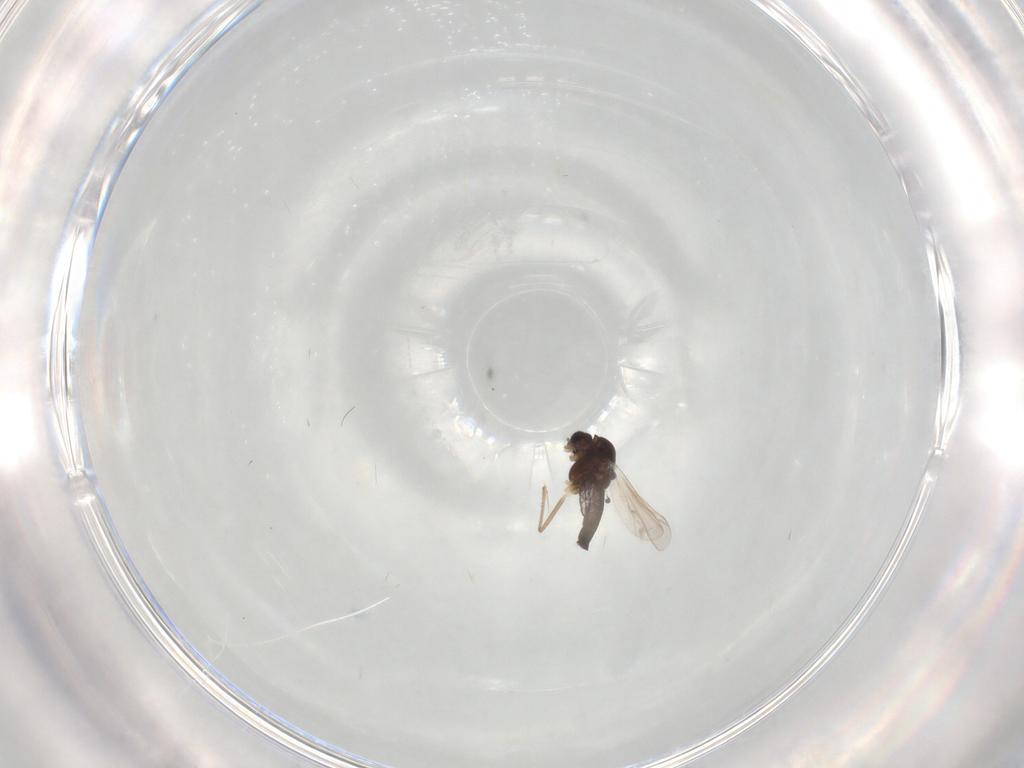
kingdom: Animalia
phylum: Arthropoda
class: Insecta
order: Diptera
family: Chironomidae
